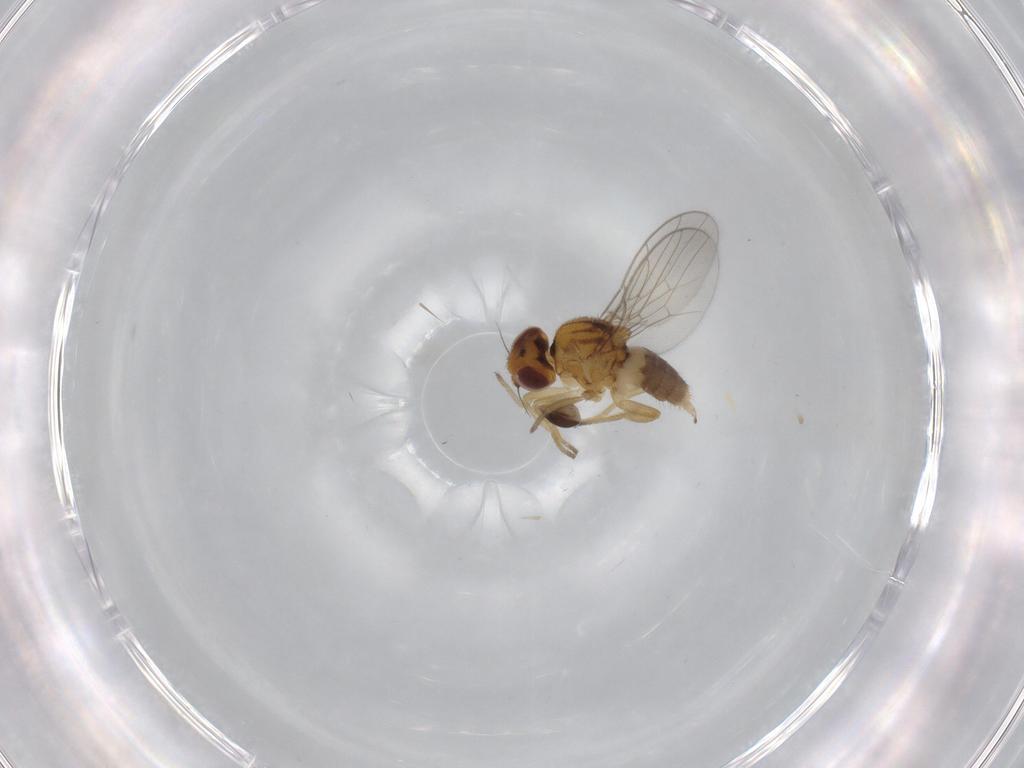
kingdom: Animalia
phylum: Arthropoda
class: Insecta
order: Diptera
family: Chloropidae
